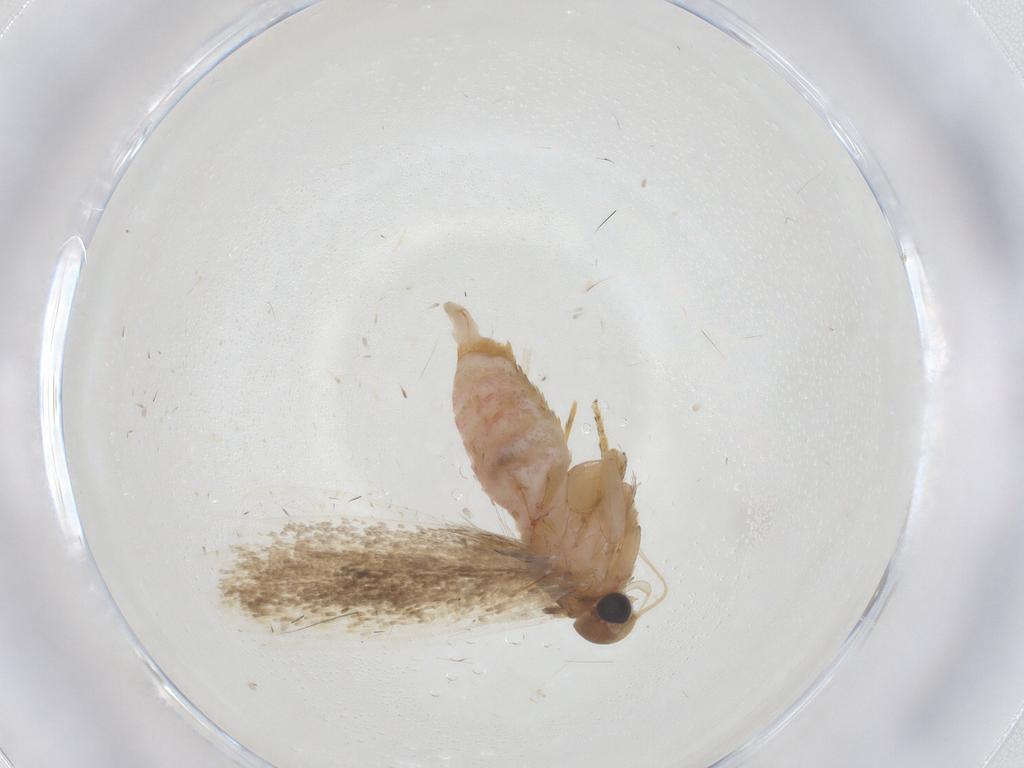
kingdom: Animalia
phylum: Arthropoda
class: Insecta
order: Lepidoptera
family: Gelechiidae
